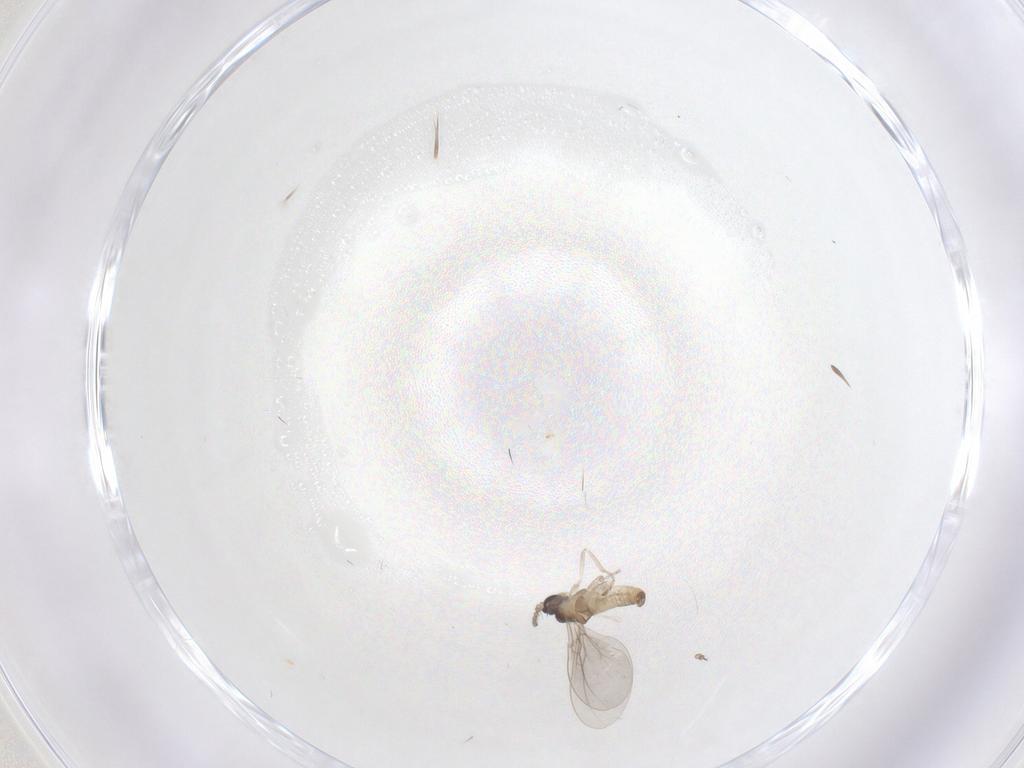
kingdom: Animalia
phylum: Arthropoda
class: Insecta
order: Diptera
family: Cecidomyiidae
